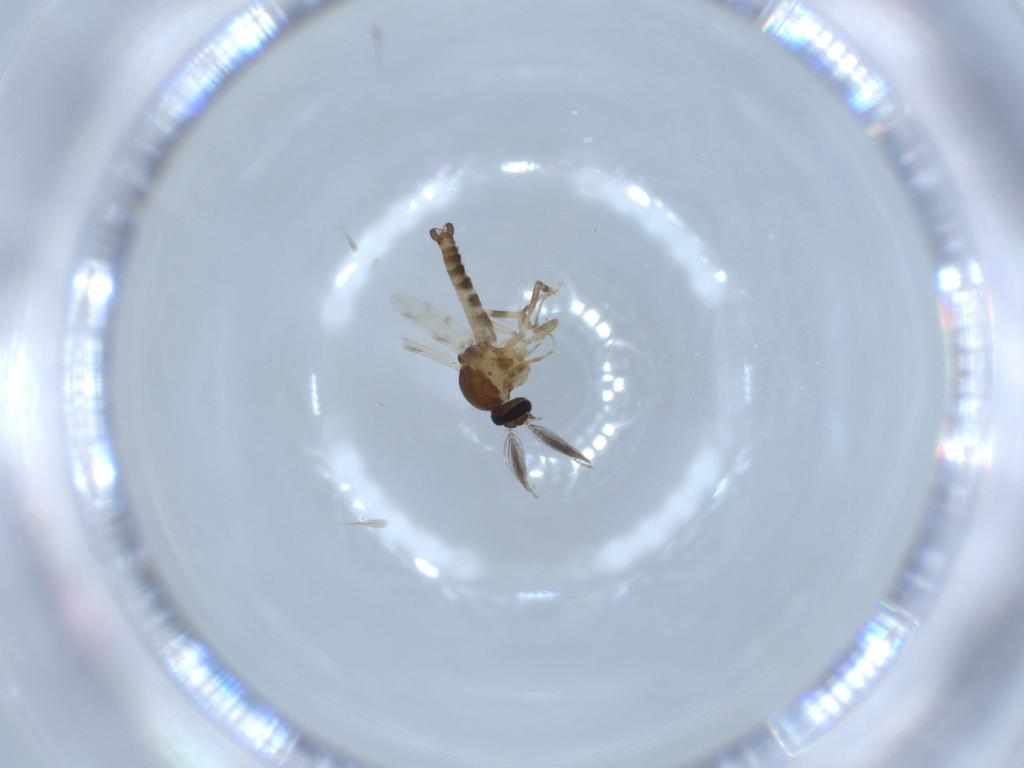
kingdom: Animalia
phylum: Arthropoda
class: Insecta
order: Diptera
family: Ceratopogonidae
